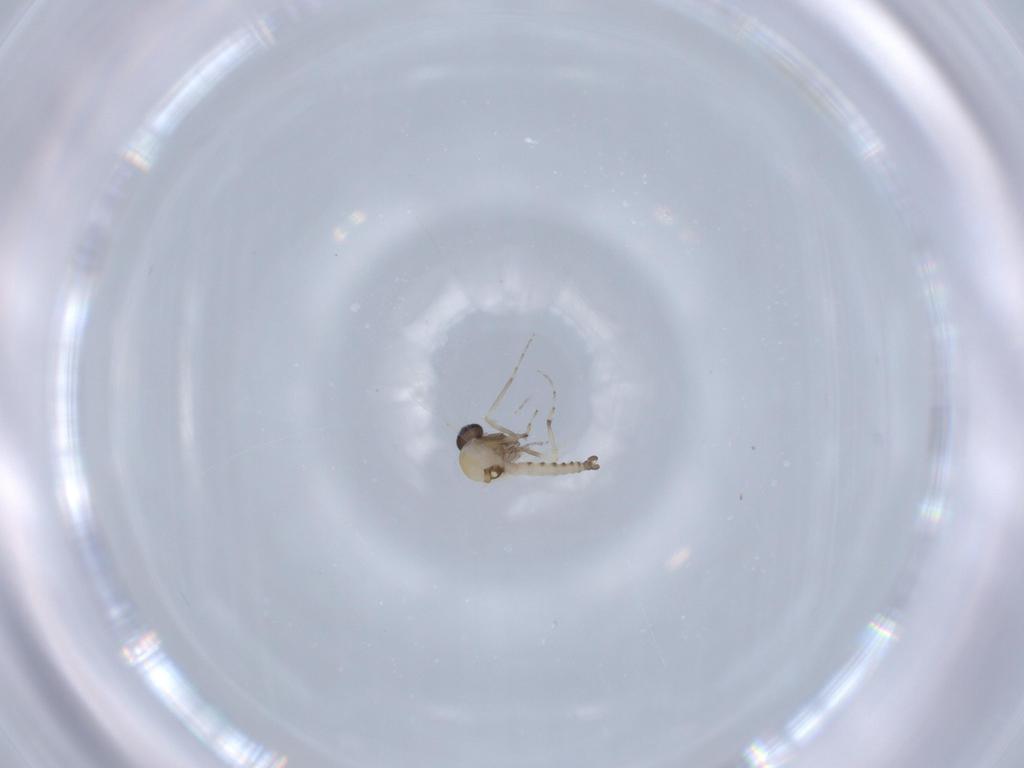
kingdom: Animalia
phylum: Arthropoda
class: Insecta
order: Diptera
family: Ceratopogonidae
